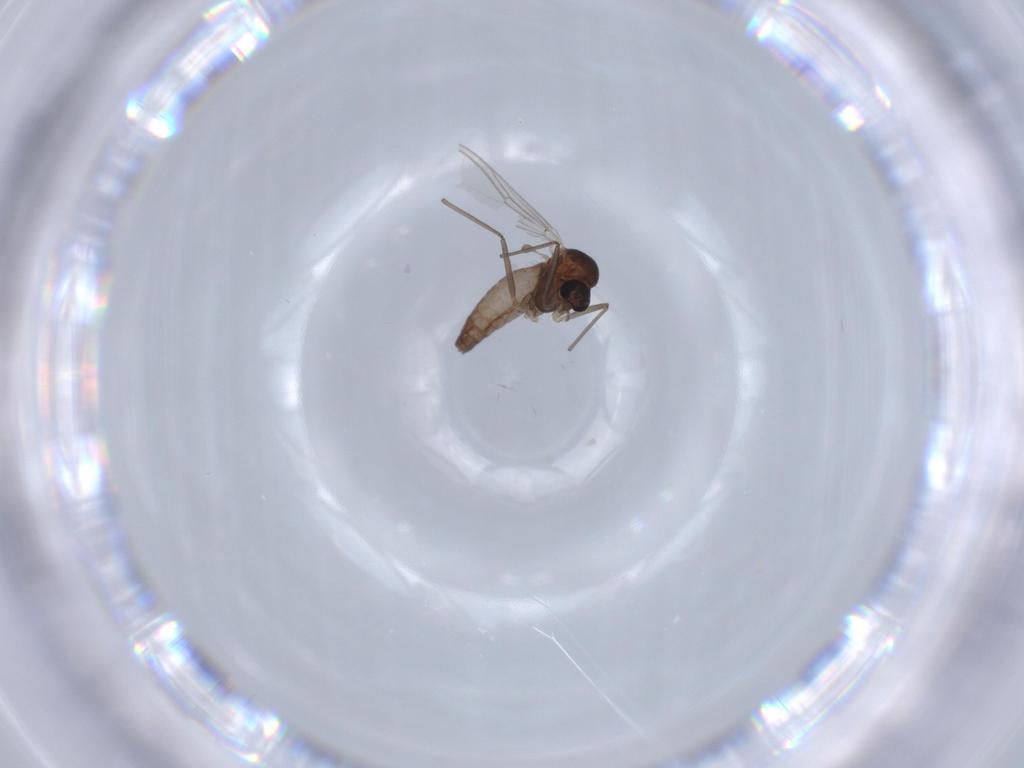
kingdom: Animalia
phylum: Arthropoda
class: Insecta
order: Diptera
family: Chironomidae
